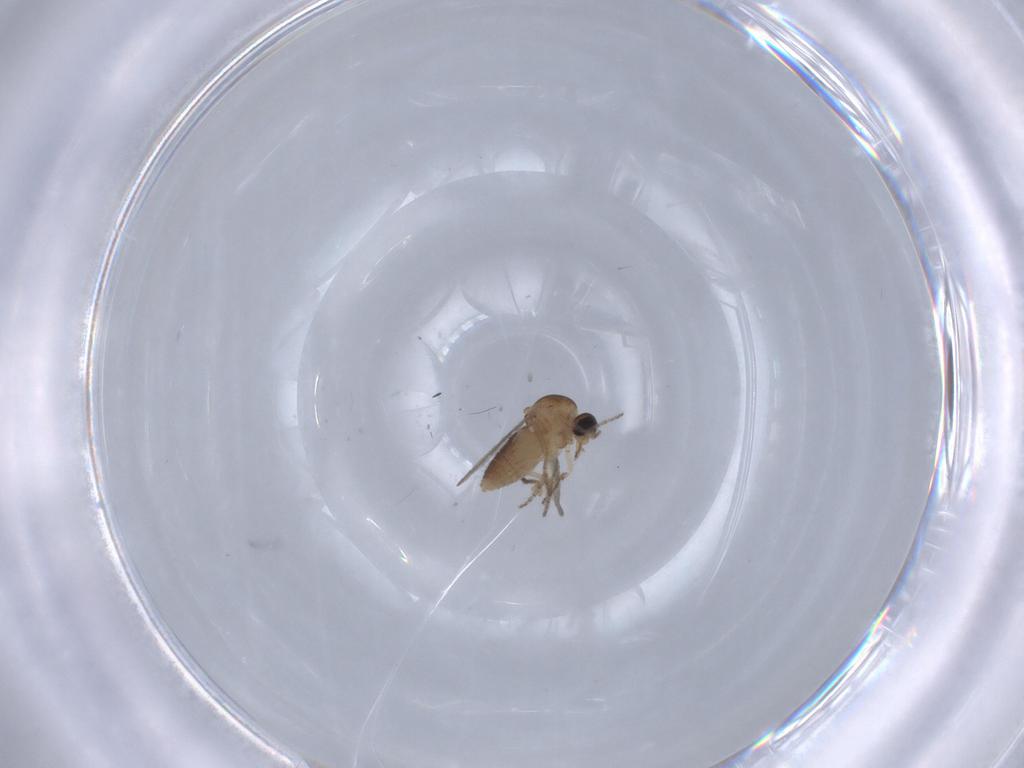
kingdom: Animalia
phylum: Arthropoda
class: Insecta
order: Diptera
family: Ceratopogonidae
